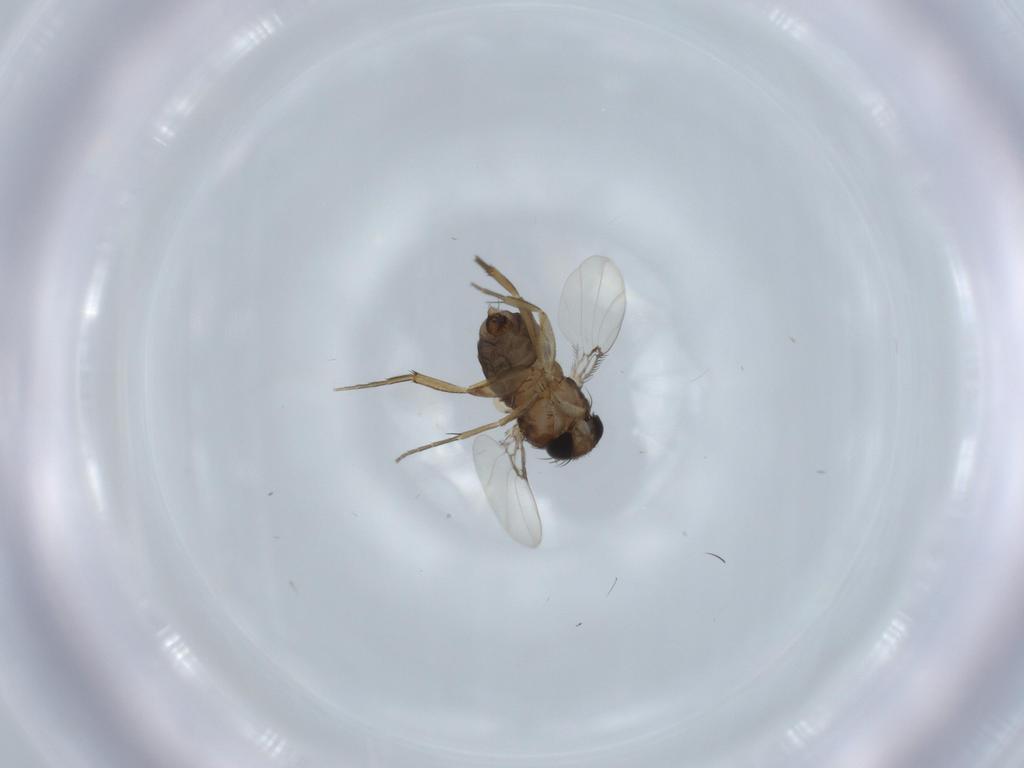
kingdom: Animalia
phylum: Arthropoda
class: Insecta
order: Diptera
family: Phoridae
